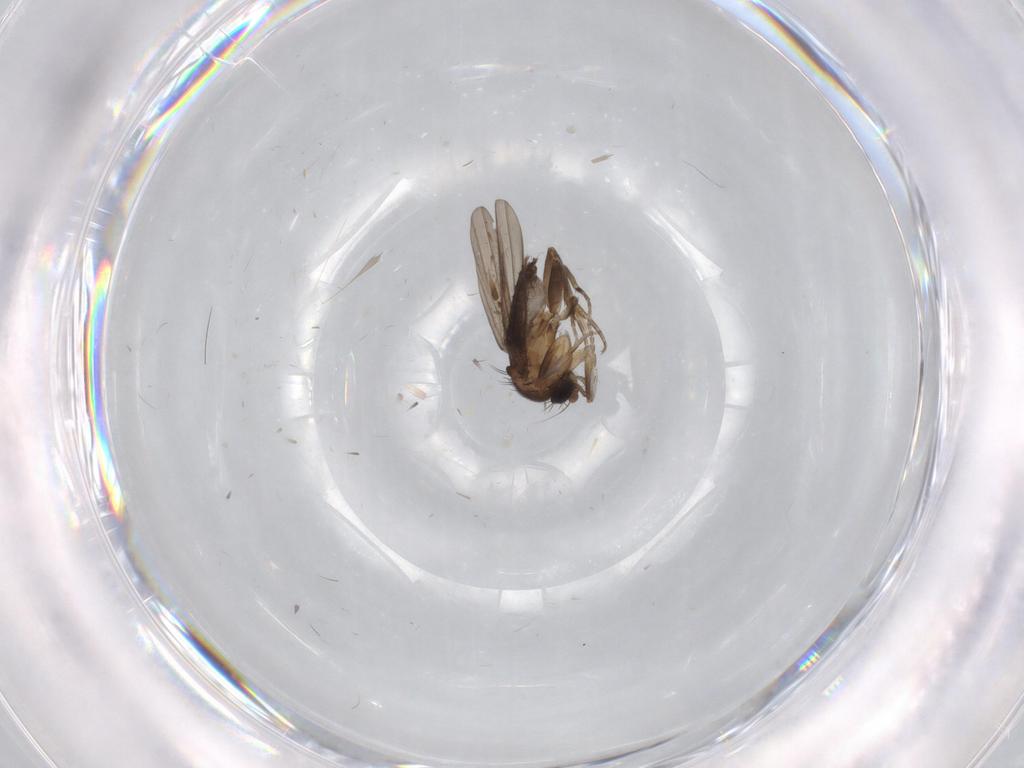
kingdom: Animalia
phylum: Arthropoda
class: Insecta
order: Diptera
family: Phoridae
